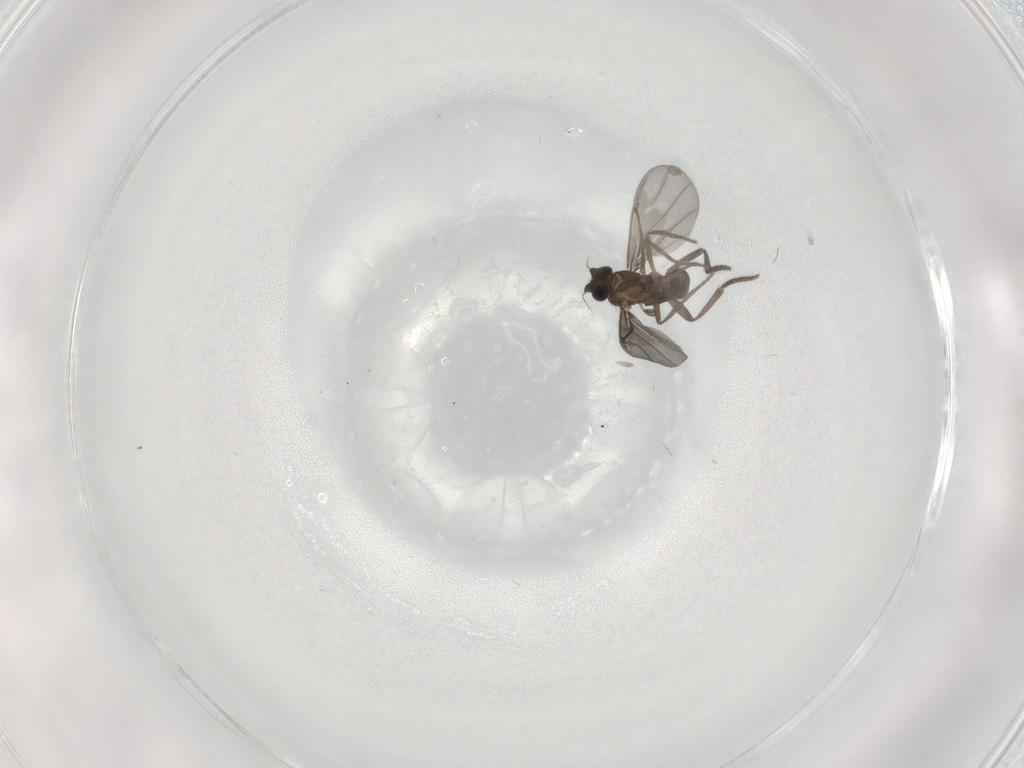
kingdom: Animalia
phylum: Arthropoda
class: Insecta
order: Diptera
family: Phoridae
